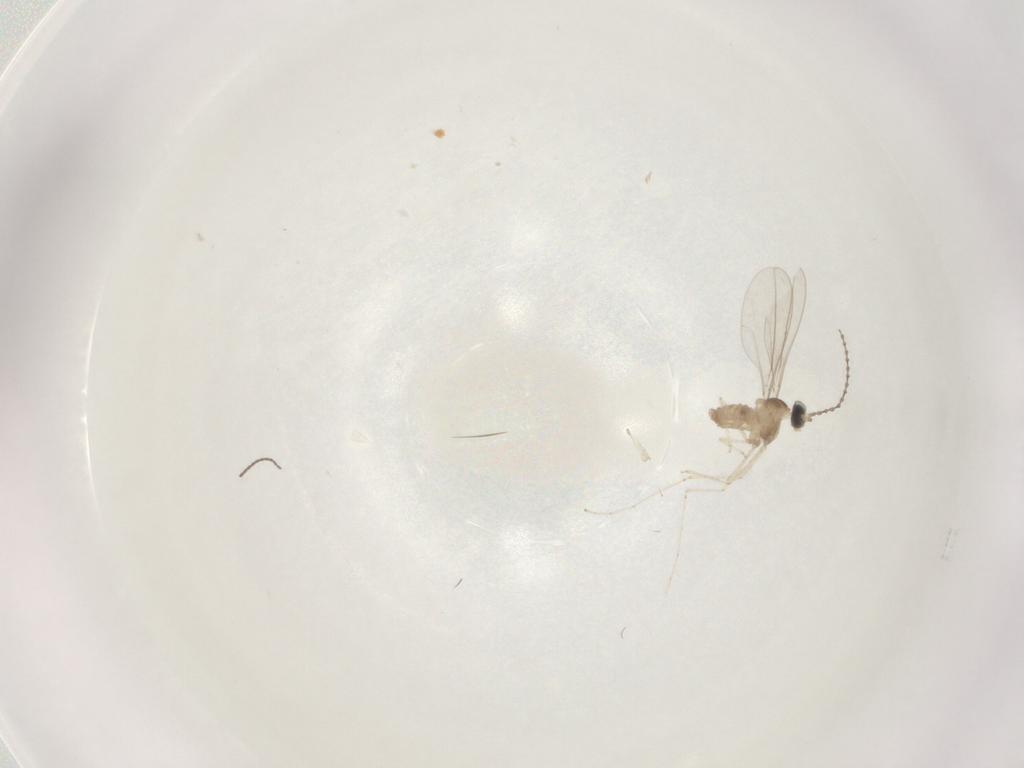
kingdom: Animalia
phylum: Arthropoda
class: Insecta
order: Diptera
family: Cecidomyiidae
